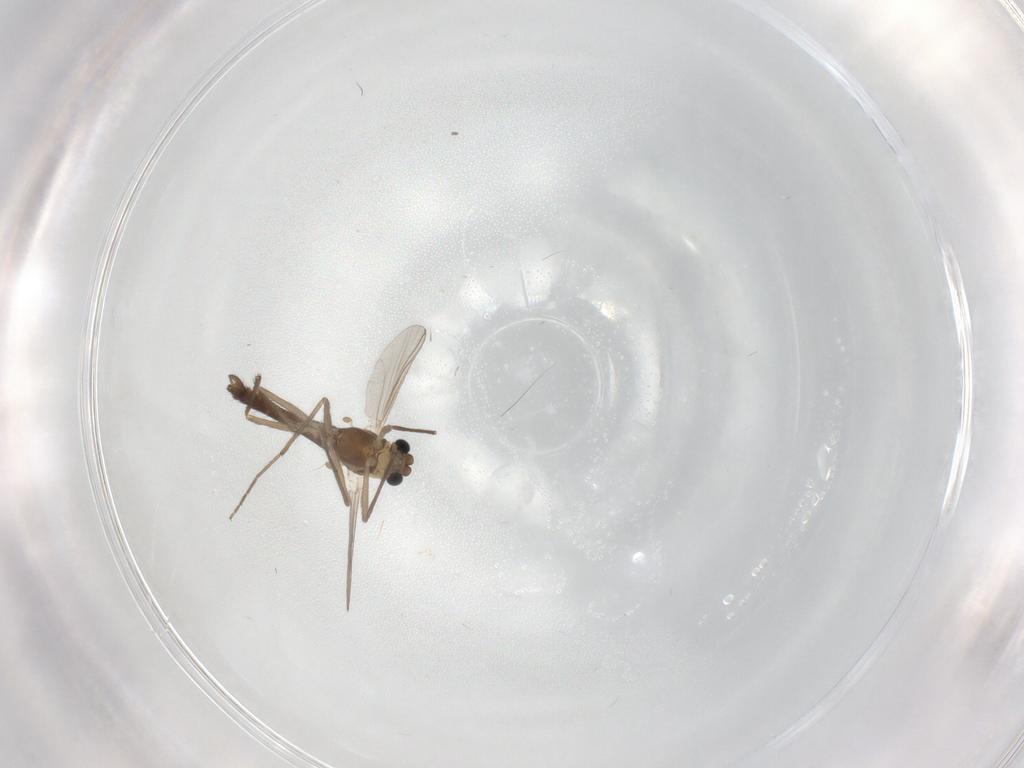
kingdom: Animalia
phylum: Arthropoda
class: Insecta
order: Diptera
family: Chironomidae
